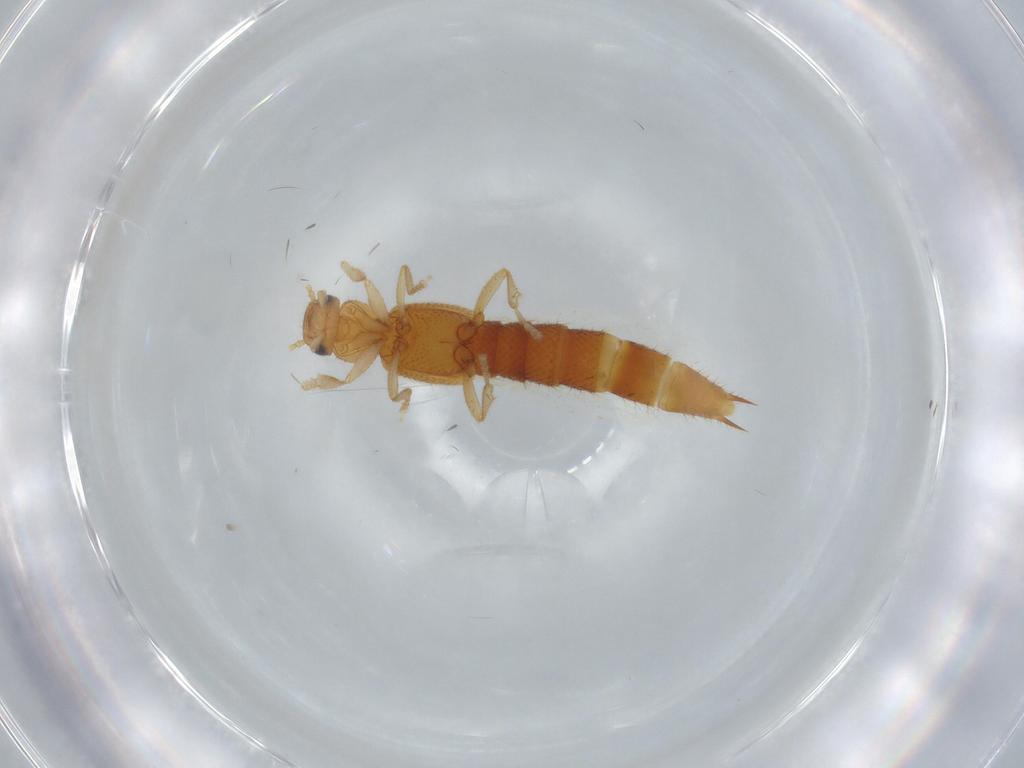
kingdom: Animalia
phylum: Arthropoda
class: Insecta
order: Coleoptera
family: Staphylinidae
